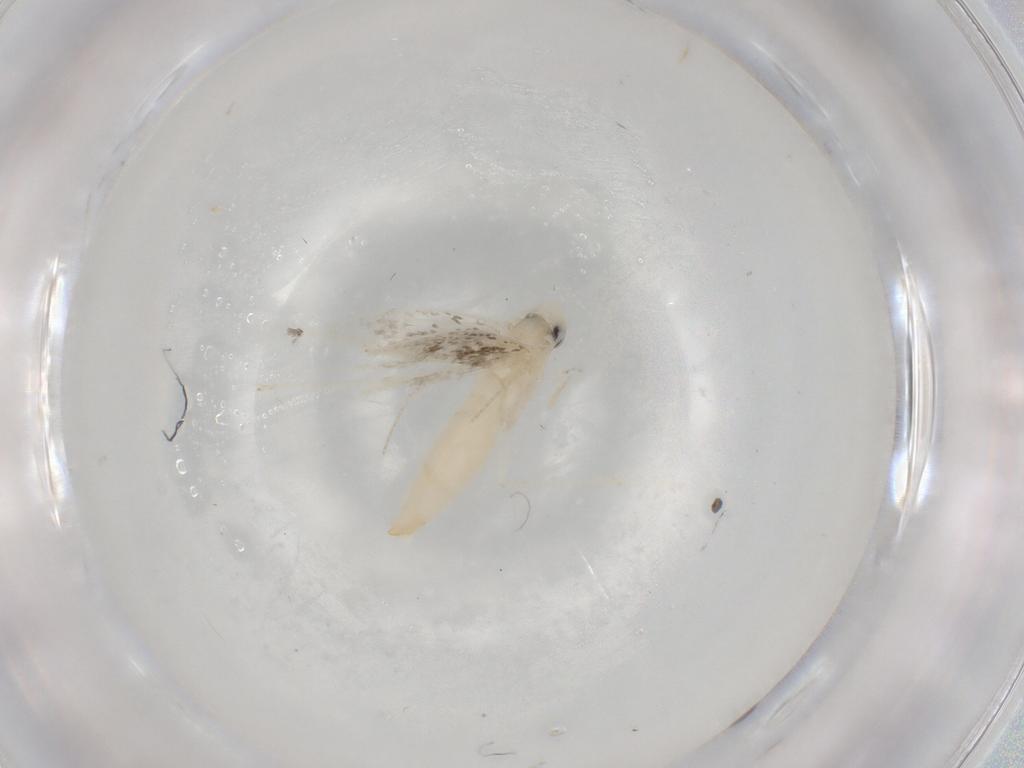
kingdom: Animalia
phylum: Arthropoda
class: Insecta
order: Lepidoptera
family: Gracillariidae
